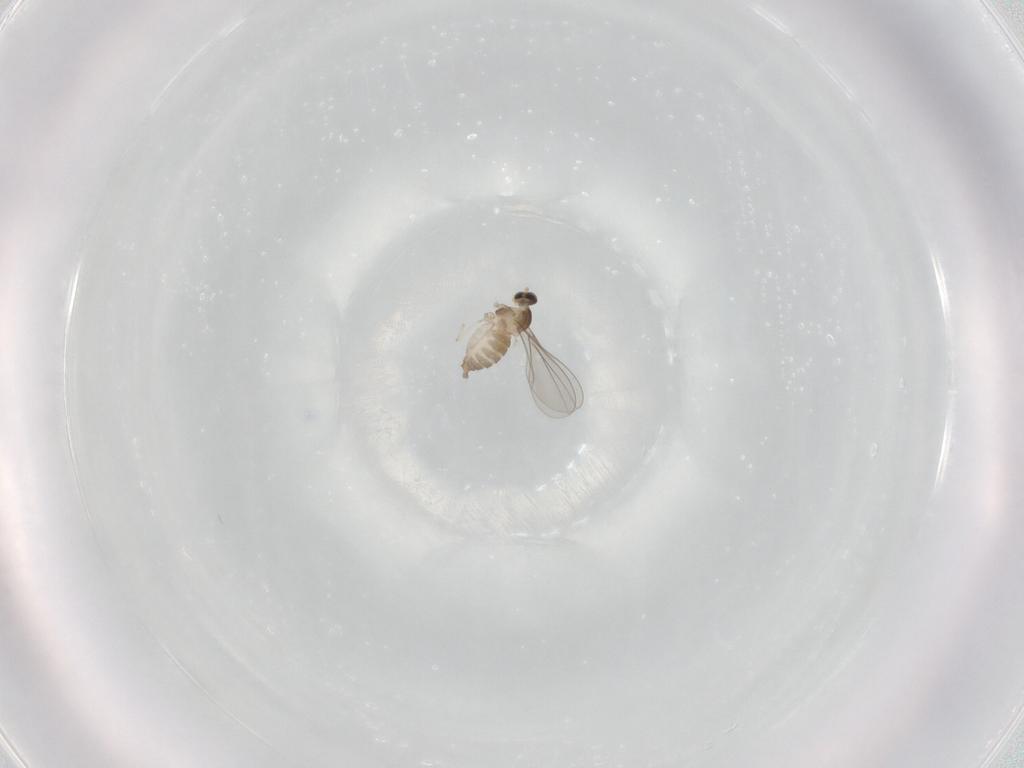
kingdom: Animalia
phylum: Arthropoda
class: Insecta
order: Diptera
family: Cecidomyiidae
